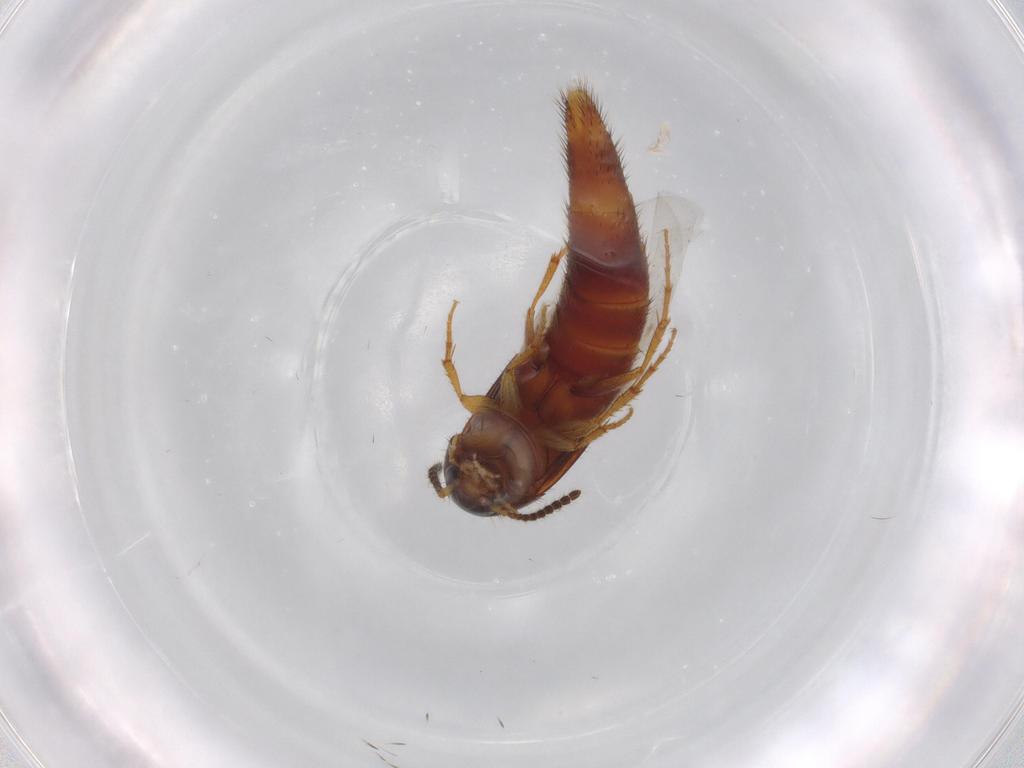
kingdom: Animalia
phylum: Arthropoda
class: Insecta
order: Coleoptera
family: Staphylinidae
